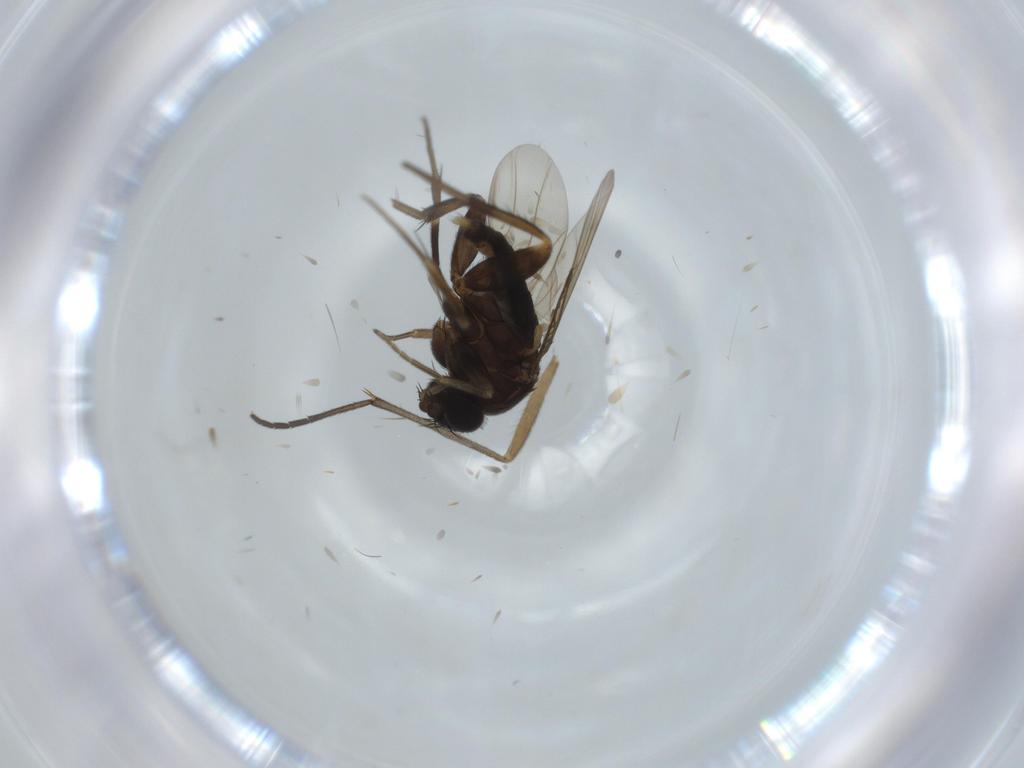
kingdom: Animalia
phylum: Arthropoda
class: Insecta
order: Diptera
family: Phoridae
